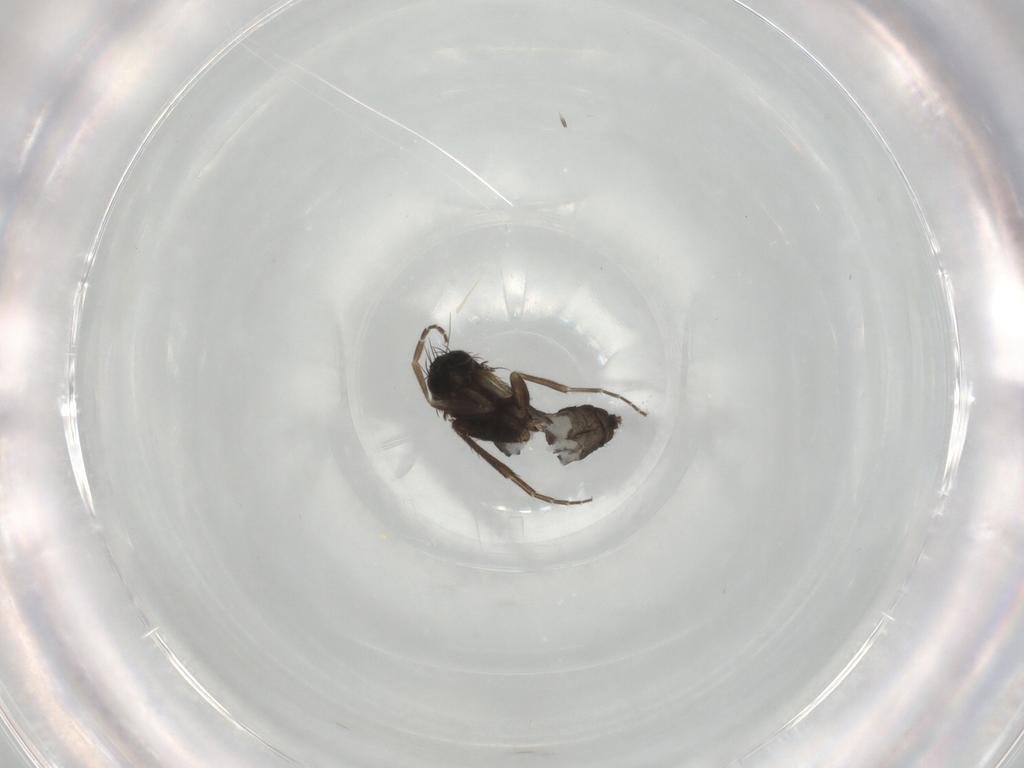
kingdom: Animalia
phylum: Arthropoda
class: Insecta
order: Diptera
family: Phoridae
